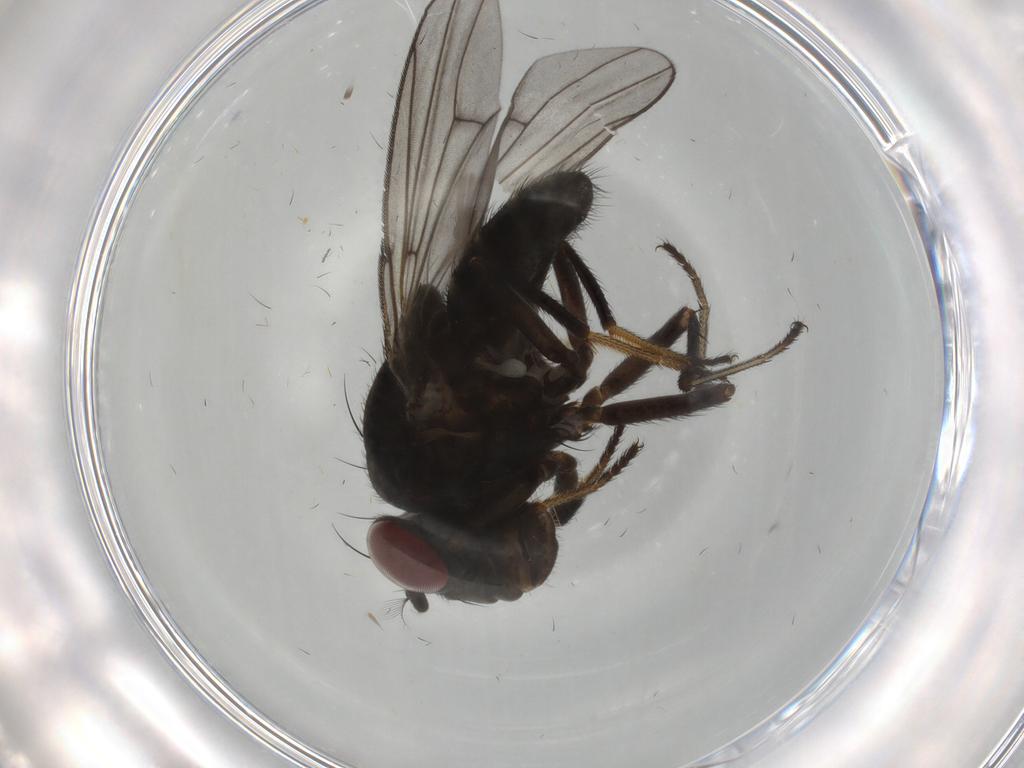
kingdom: Animalia
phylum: Arthropoda
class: Insecta
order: Diptera
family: Ephydridae
